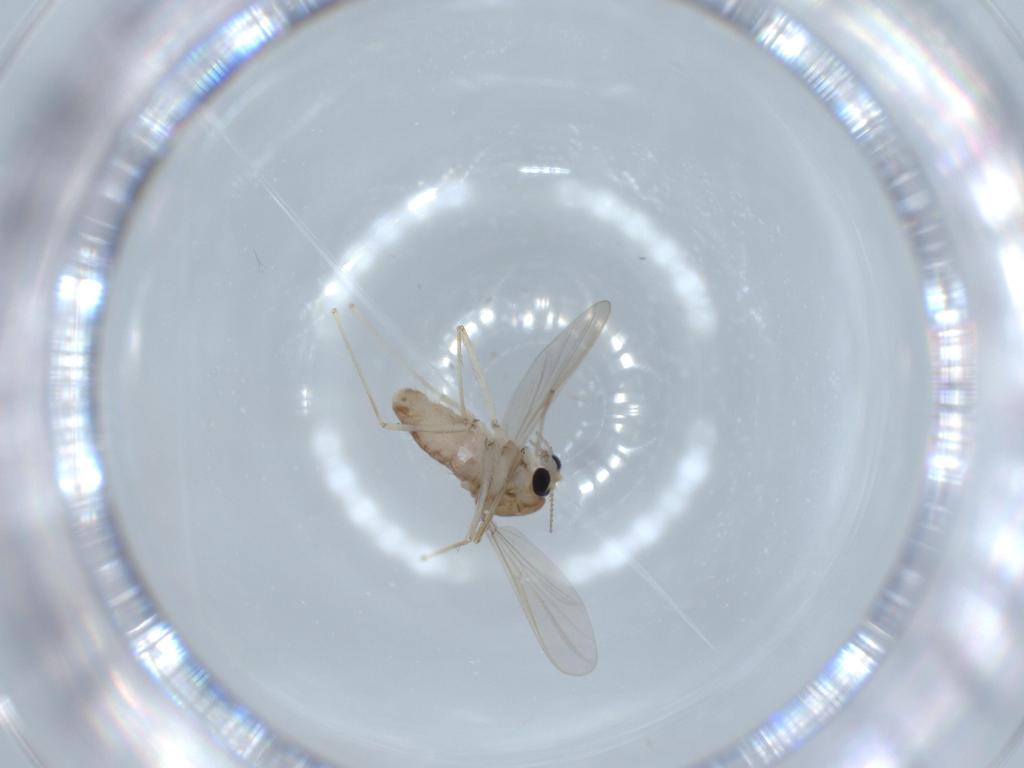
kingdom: Animalia
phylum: Arthropoda
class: Insecta
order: Diptera
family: Chironomidae
